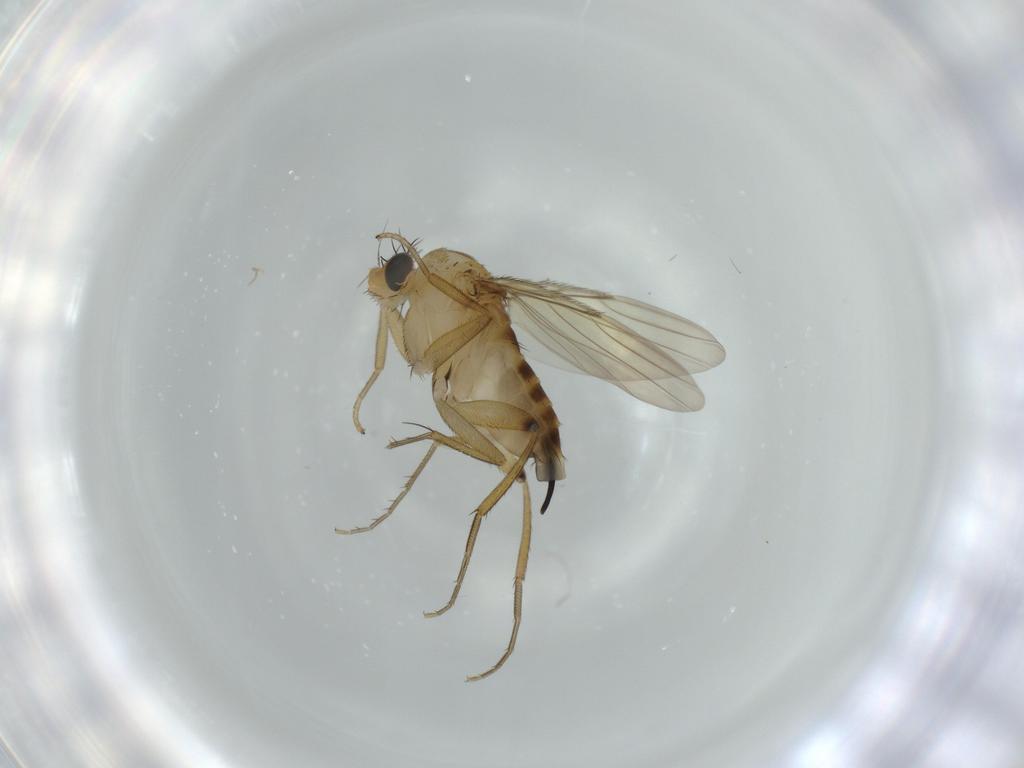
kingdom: Animalia
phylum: Arthropoda
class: Insecta
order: Diptera
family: Phoridae
